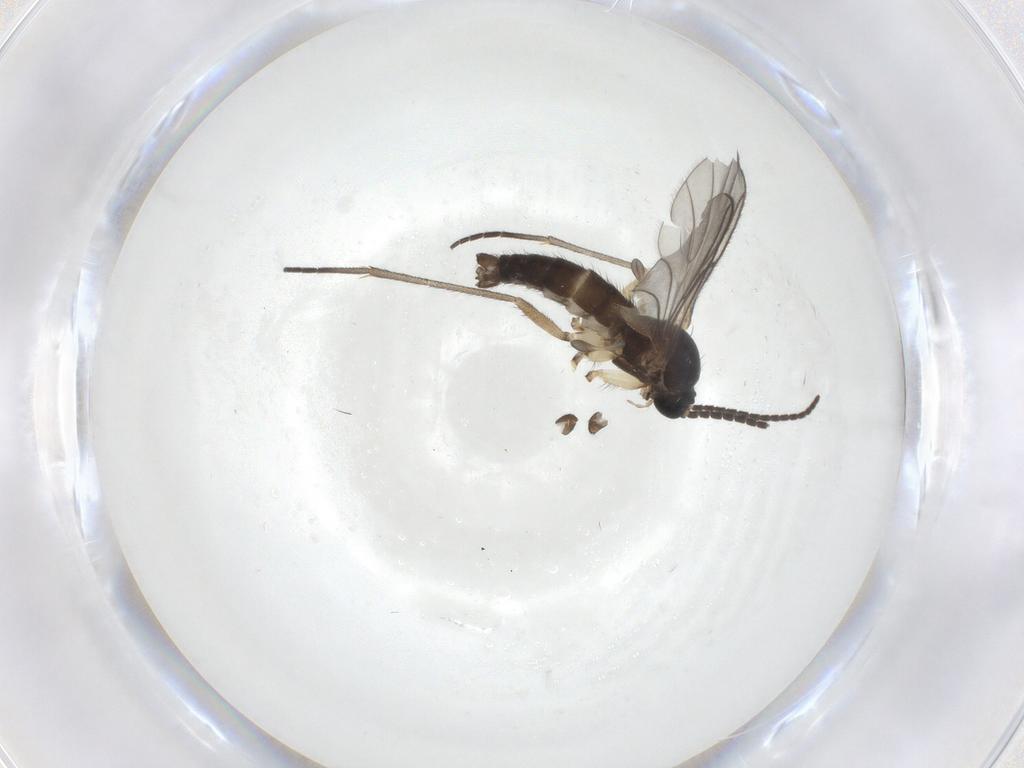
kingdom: Animalia
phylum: Arthropoda
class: Insecta
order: Diptera
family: Sciaridae
